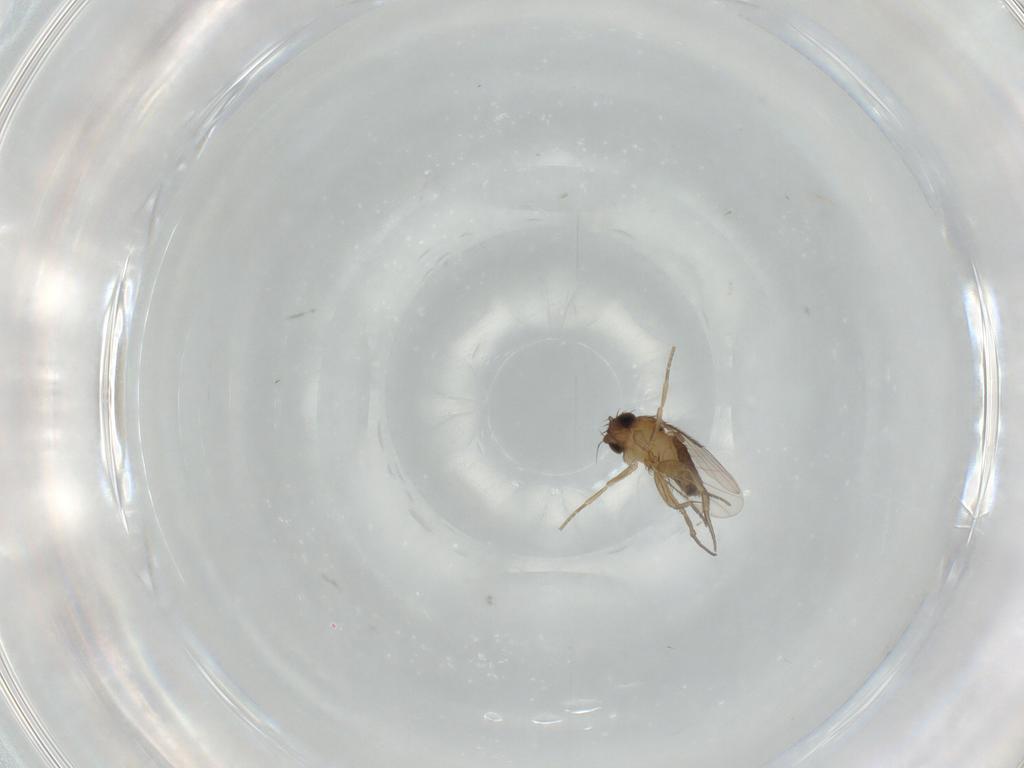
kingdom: Animalia
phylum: Arthropoda
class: Insecta
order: Diptera
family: Phoridae
